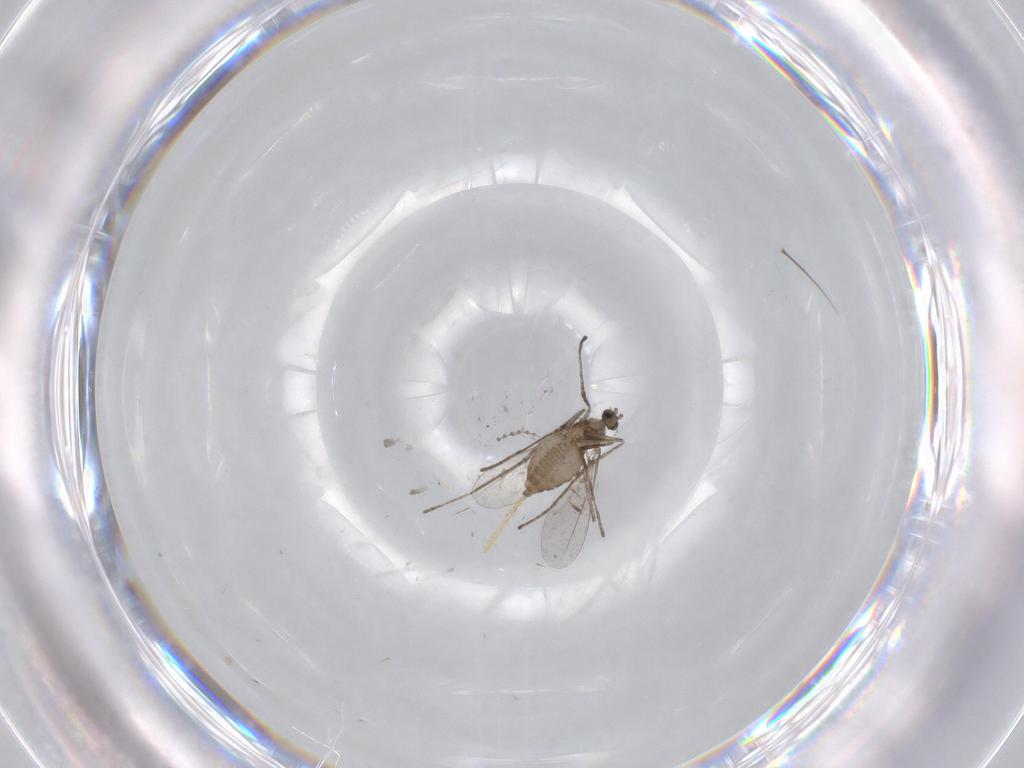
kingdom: Animalia
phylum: Arthropoda
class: Insecta
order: Diptera
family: Cecidomyiidae
